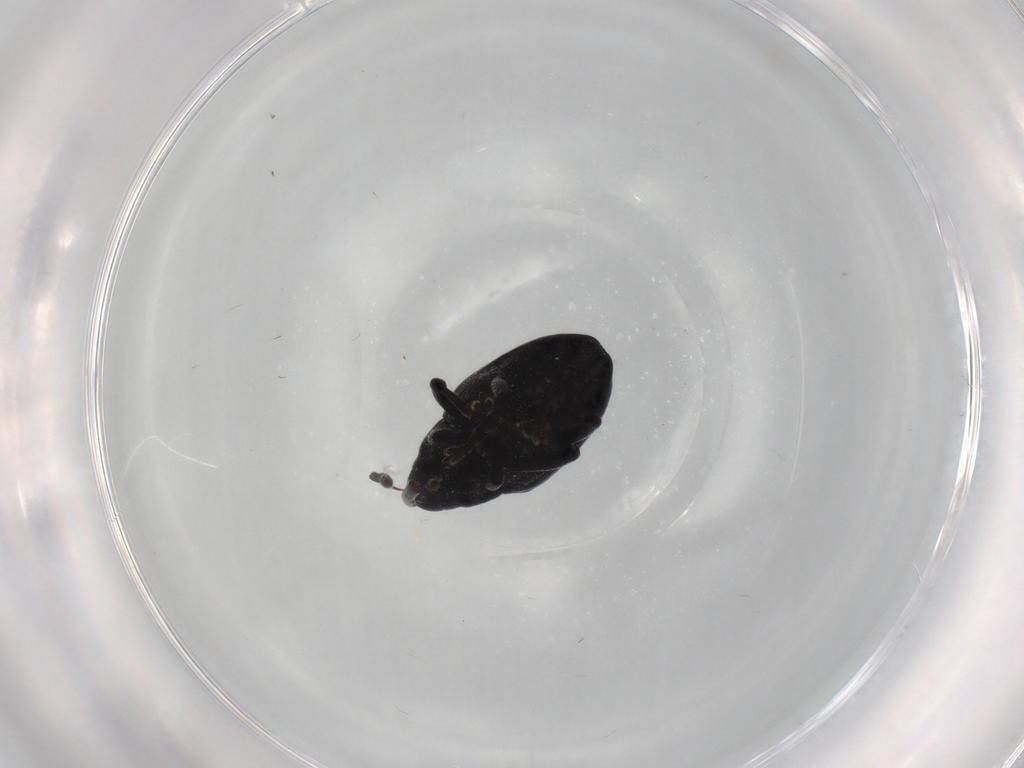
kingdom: Animalia
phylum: Arthropoda
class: Insecta
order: Coleoptera
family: Curculionidae
